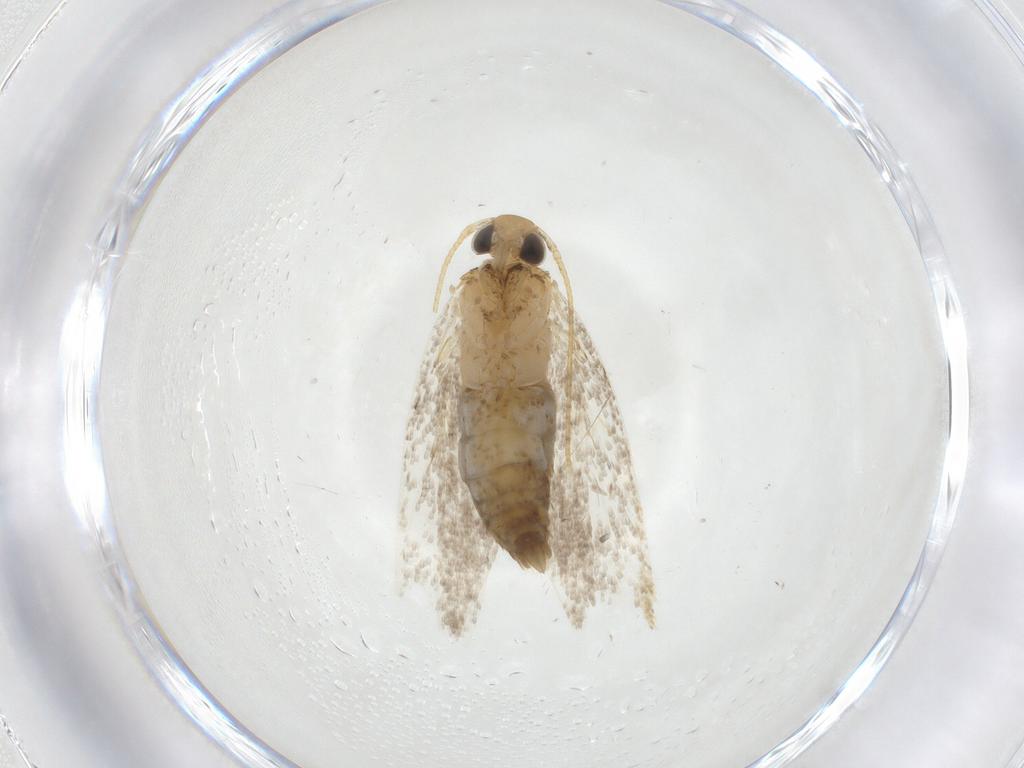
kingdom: Animalia
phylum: Arthropoda
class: Insecta
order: Lepidoptera
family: Oecophoridae
